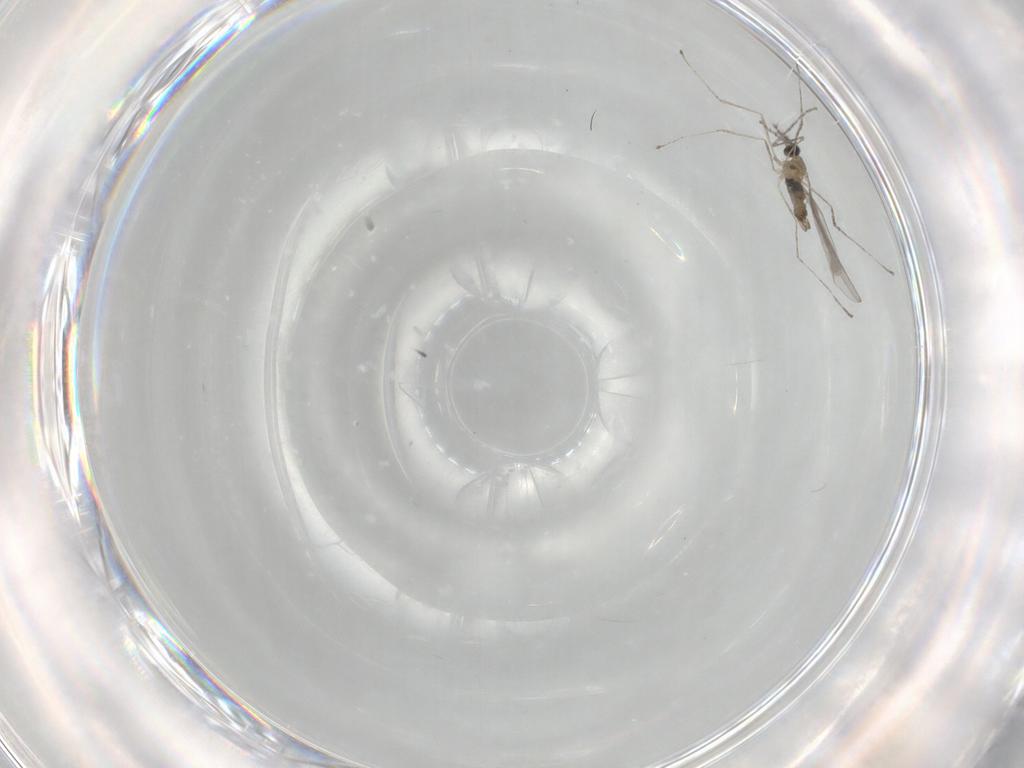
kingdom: Animalia
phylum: Arthropoda
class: Insecta
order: Diptera
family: Cecidomyiidae
